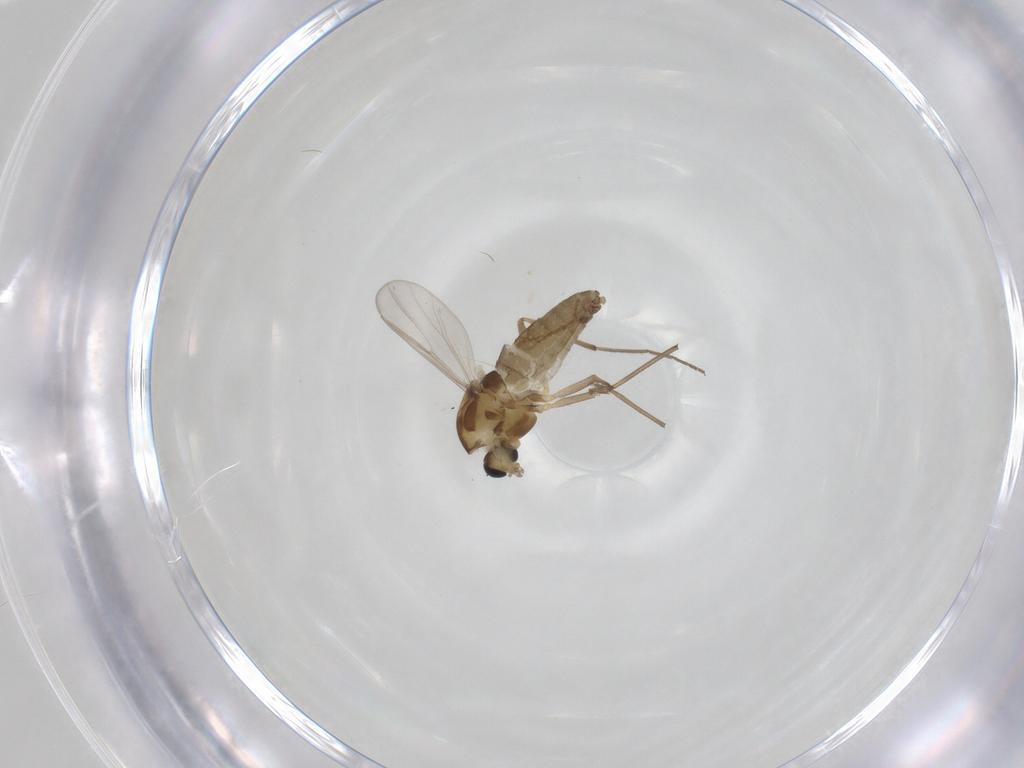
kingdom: Animalia
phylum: Arthropoda
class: Insecta
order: Diptera
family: Chironomidae
